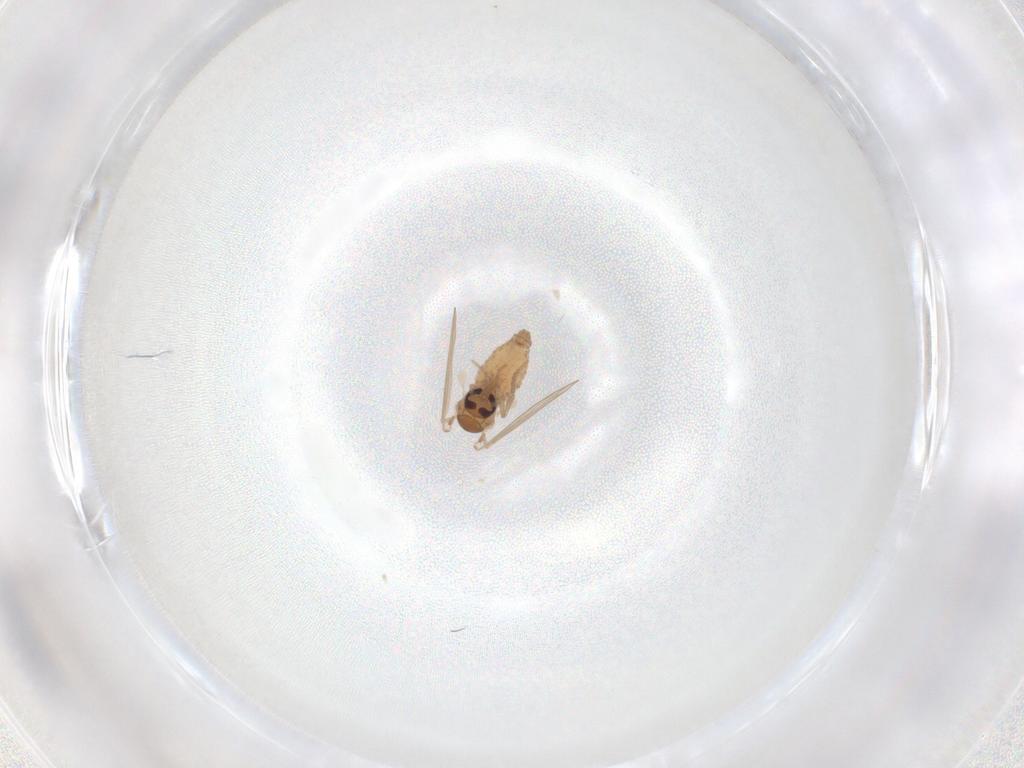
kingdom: Animalia
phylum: Arthropoda
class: Insecta
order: Diptera
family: Psychodidae
